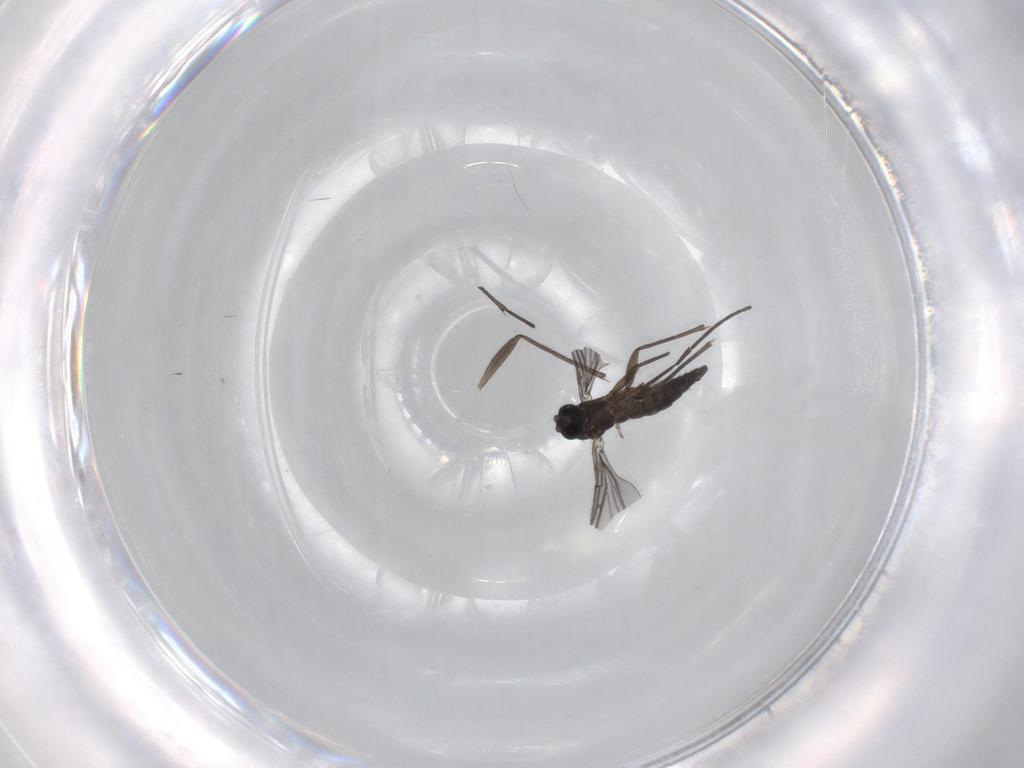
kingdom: Animalia
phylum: Arthropoda
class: Insecta
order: Diptera
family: Sciaridae
